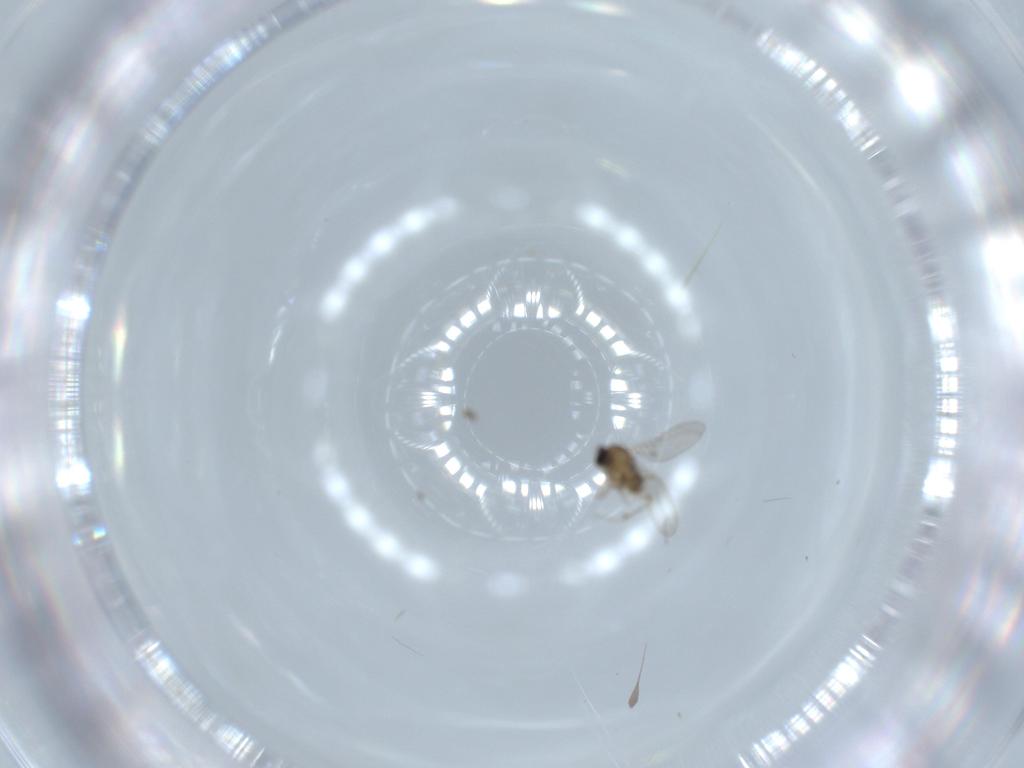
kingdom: Animalia
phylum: Arthropoda
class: Insecta
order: Diptera
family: Cecidomyiidae
